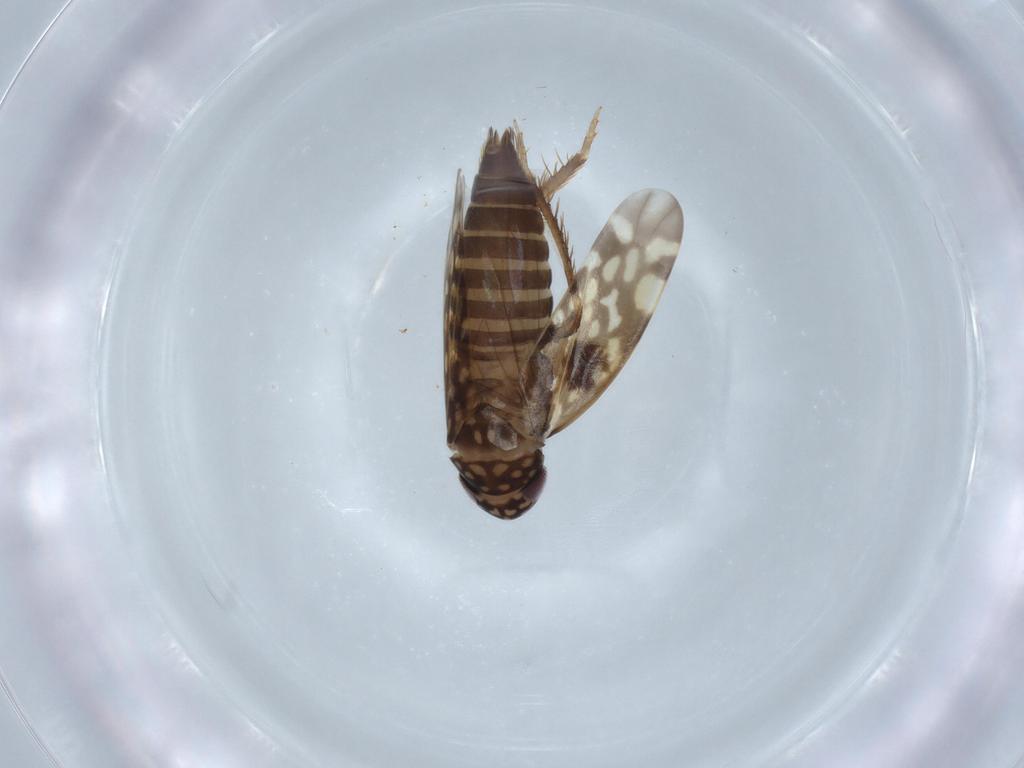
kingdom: Animalia
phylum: Arthropoda
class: Insecta
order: Hemiptera
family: Cicadellidae
